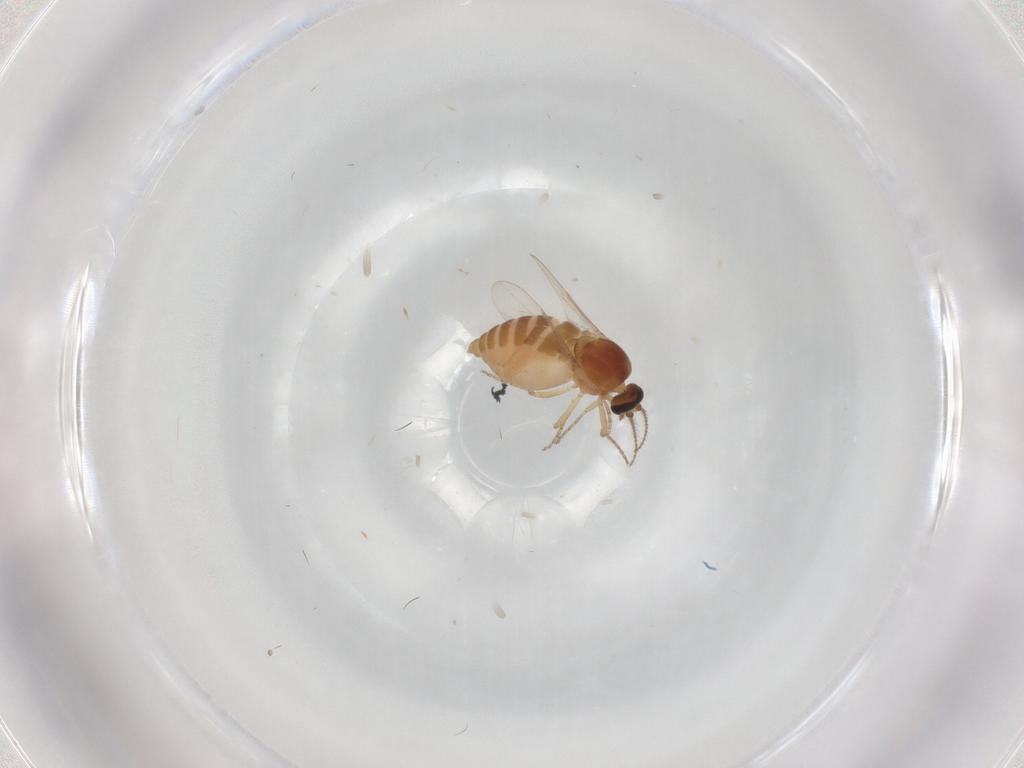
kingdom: Animalia
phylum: Arthropoda
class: Insecta
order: Diptera
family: Ceratopogonidae
